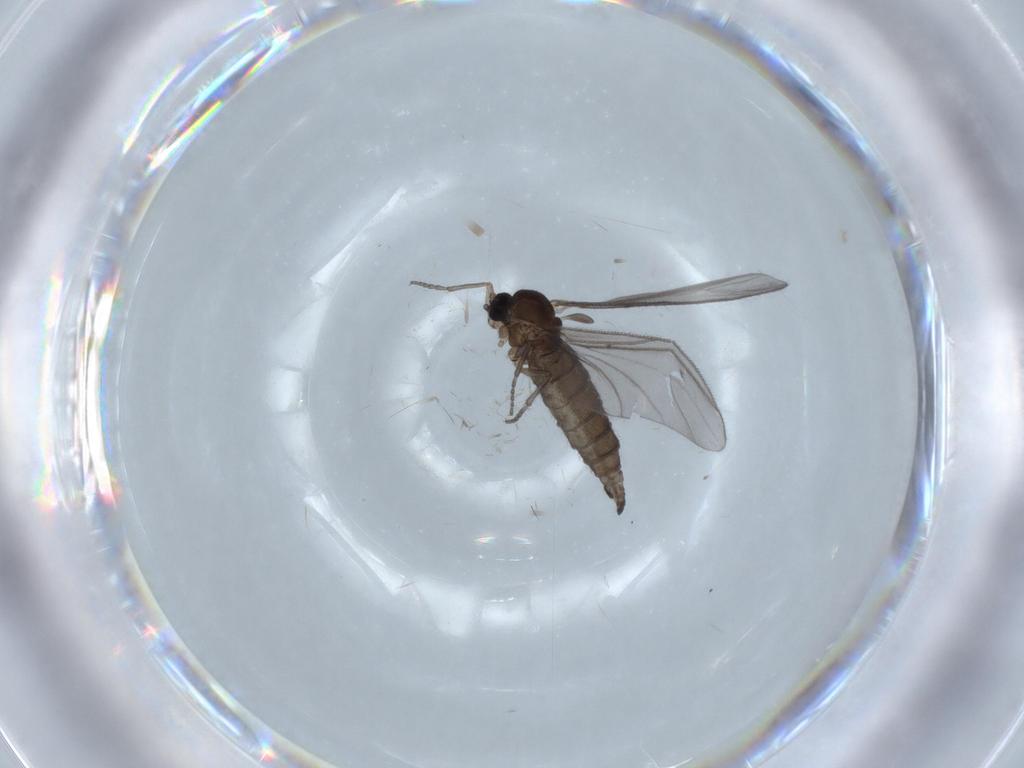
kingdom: Animalia
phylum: Arthropoda
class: Insecta
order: Diptera
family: Sciaridae
